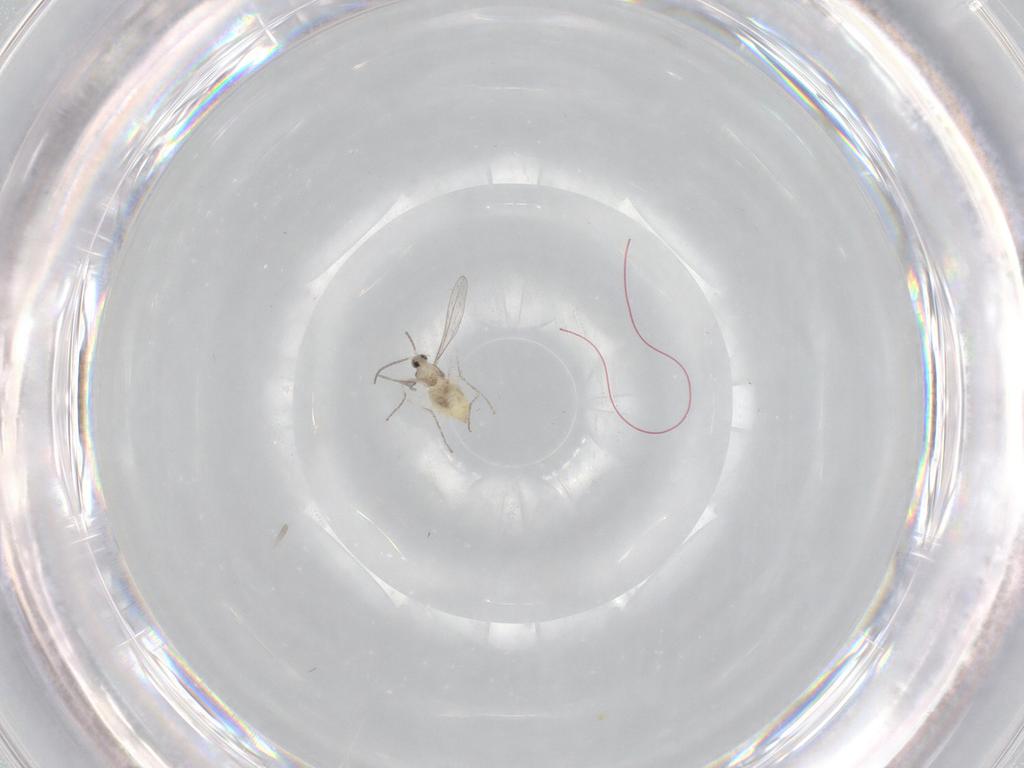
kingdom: Animalia
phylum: Arthropoda
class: Insecta
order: Diptera
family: Cecidomyiidae
